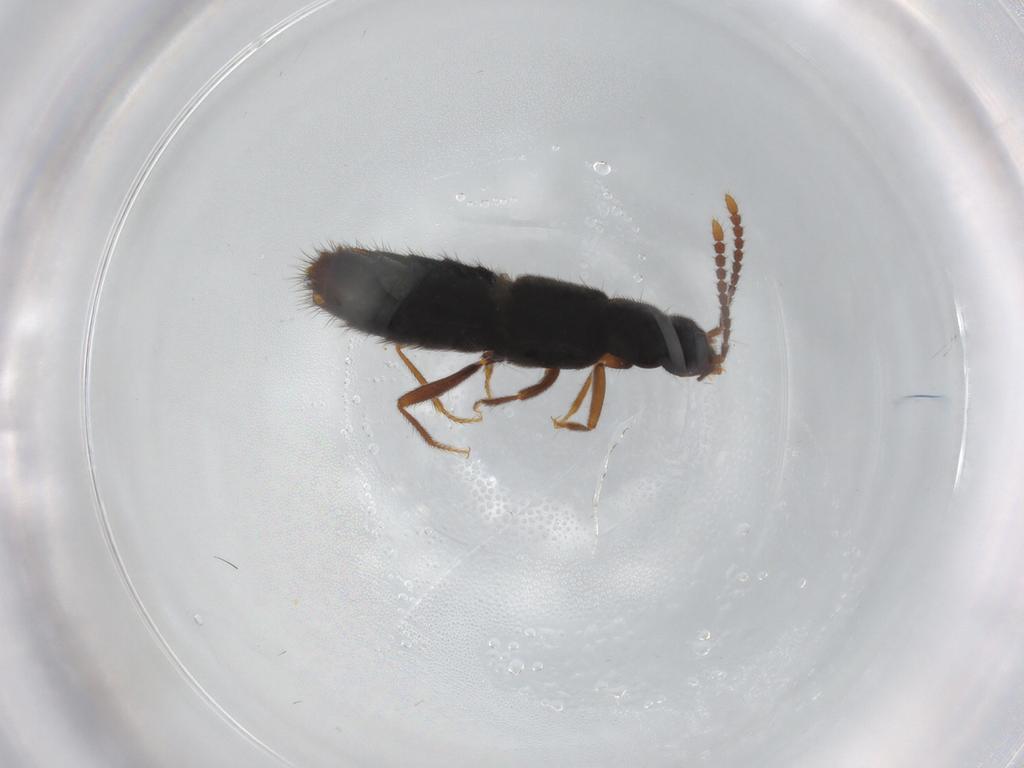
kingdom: Animalia
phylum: Arthropoda
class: Insecta
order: Coleoptera
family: Staphylinidae
